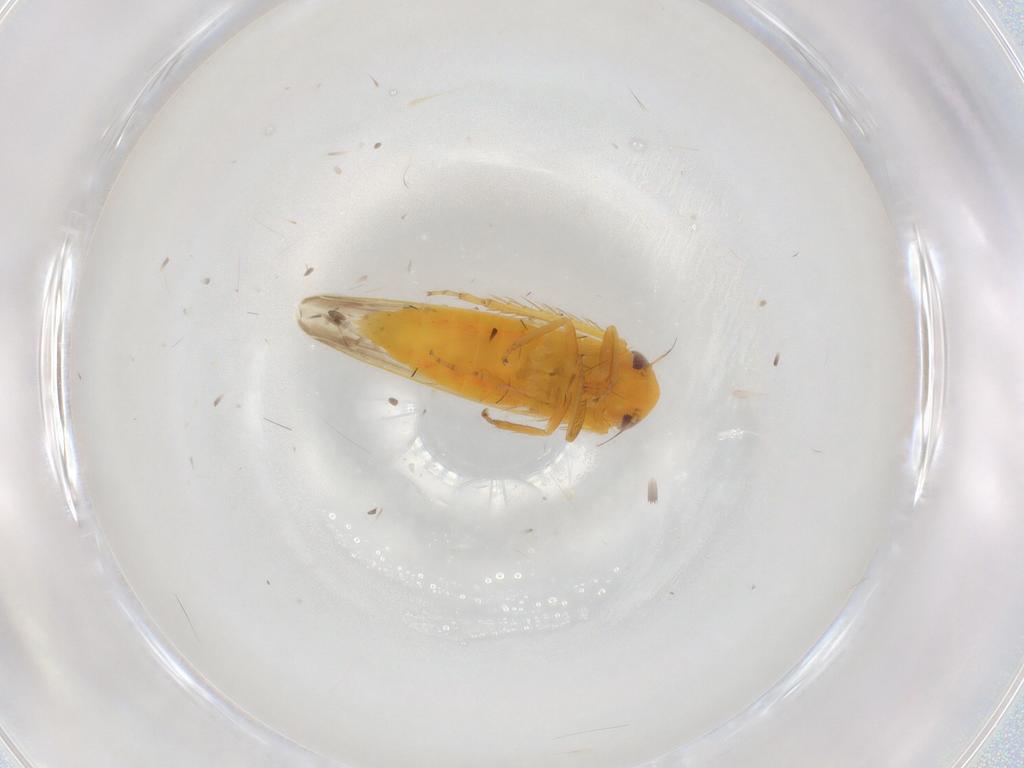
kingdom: Animalia
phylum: Arthropoda
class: Insecta
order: Hemiptera
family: Cicadellidae
